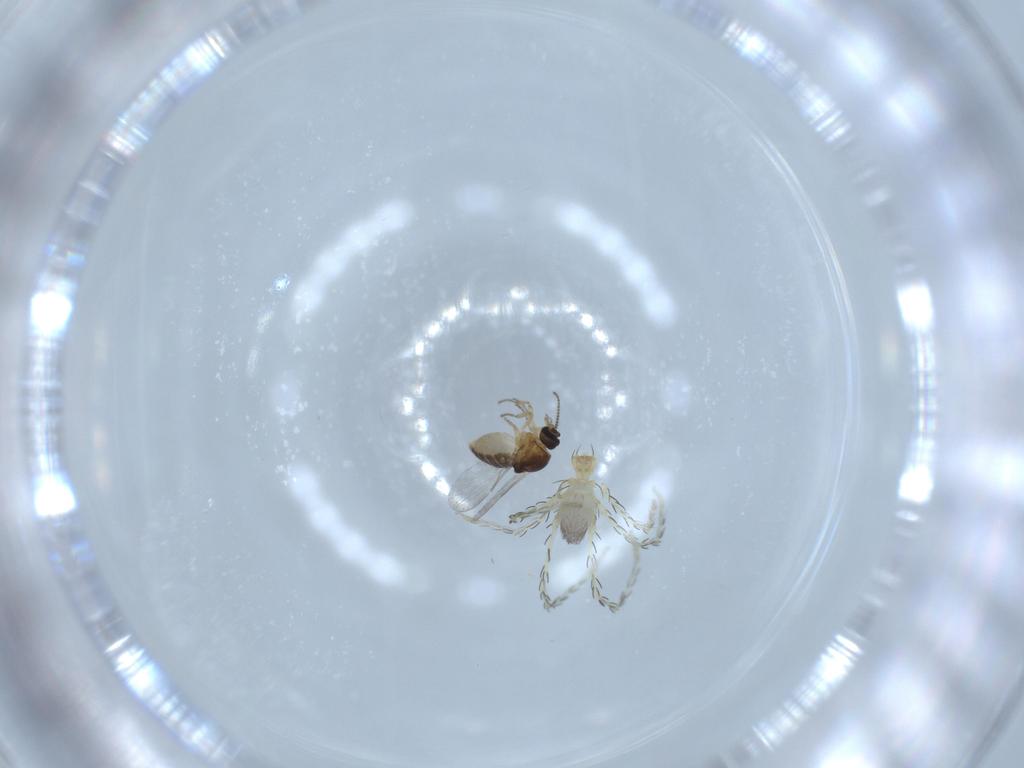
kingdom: Animalia
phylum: Arthropoda
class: Arachnida
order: Trombidiformes
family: Erythraeidae
